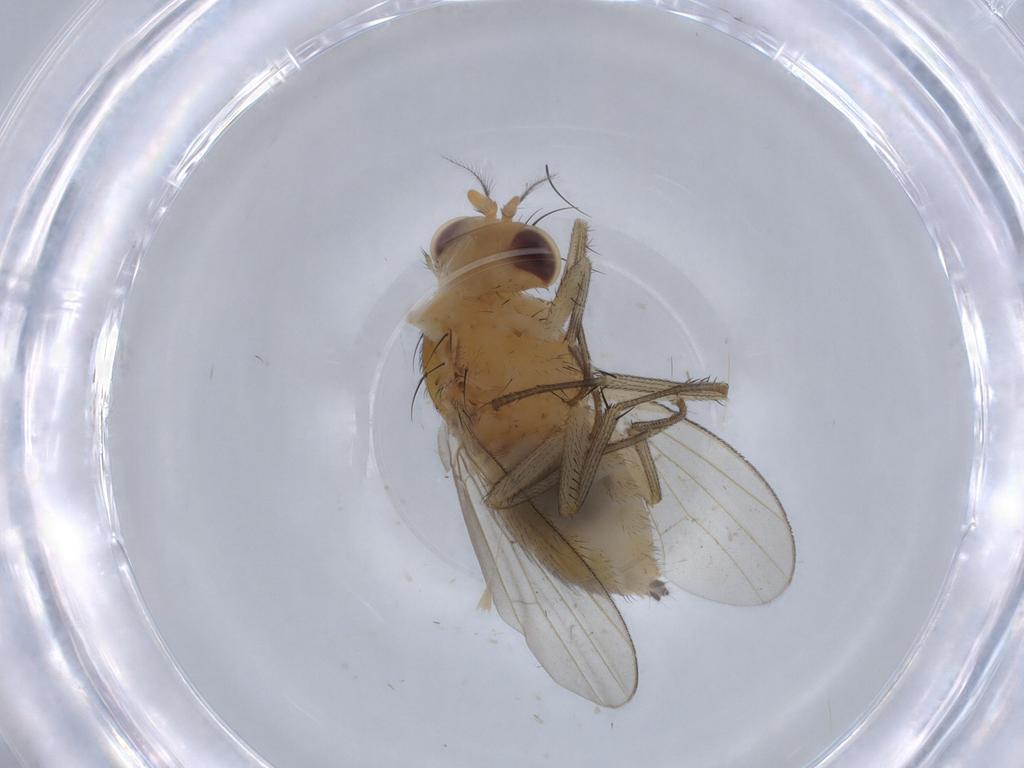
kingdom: Animalia
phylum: Arthropoda
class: Insecta
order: Diptera
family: Lauxaniidae
